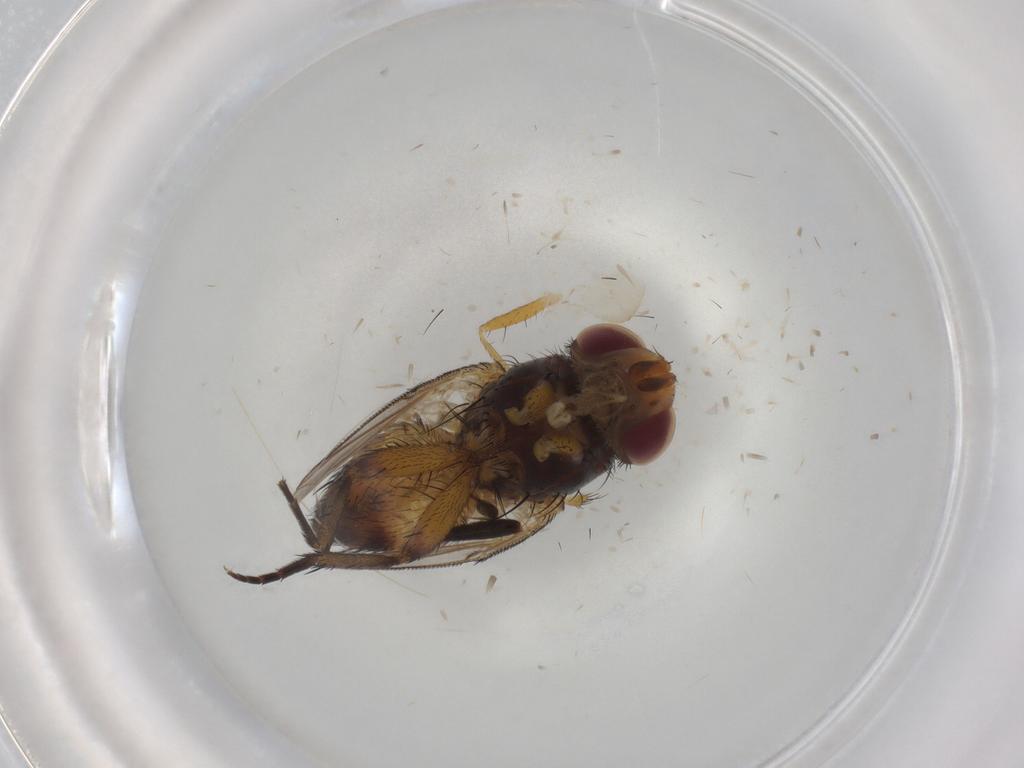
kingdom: Animalia
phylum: Arthropoda
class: Insecta
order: Diptera
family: Dolichopodidae
